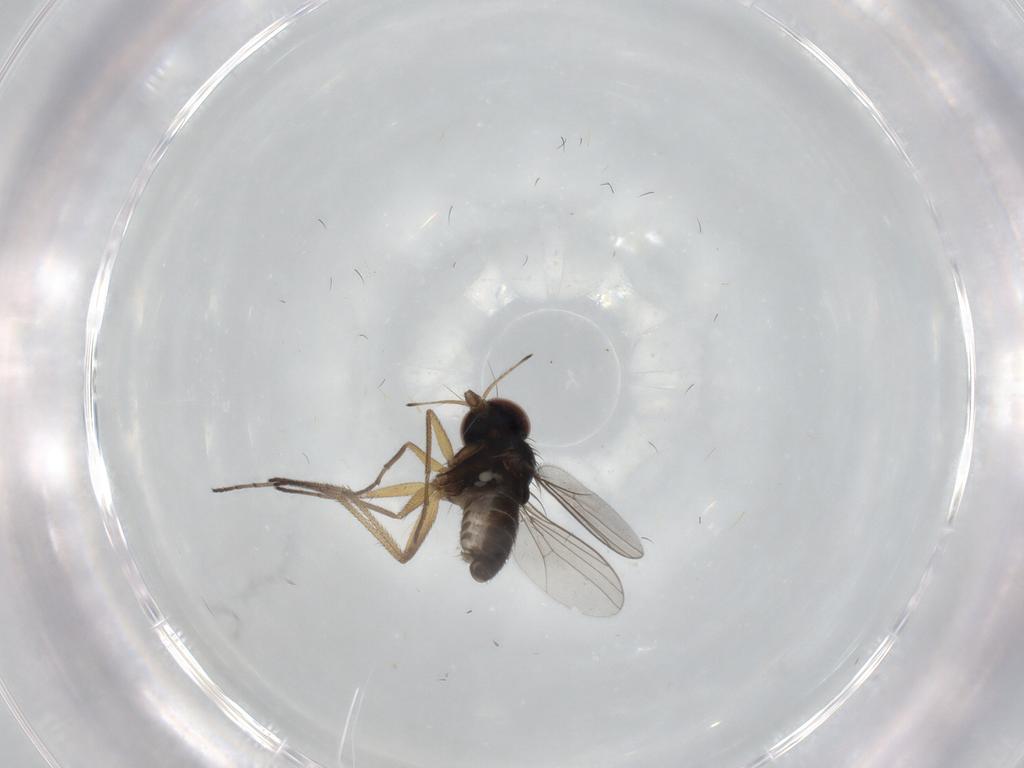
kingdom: Animalia
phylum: Arthropoda
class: Insecta
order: Diptera
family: Dolichopodidae
